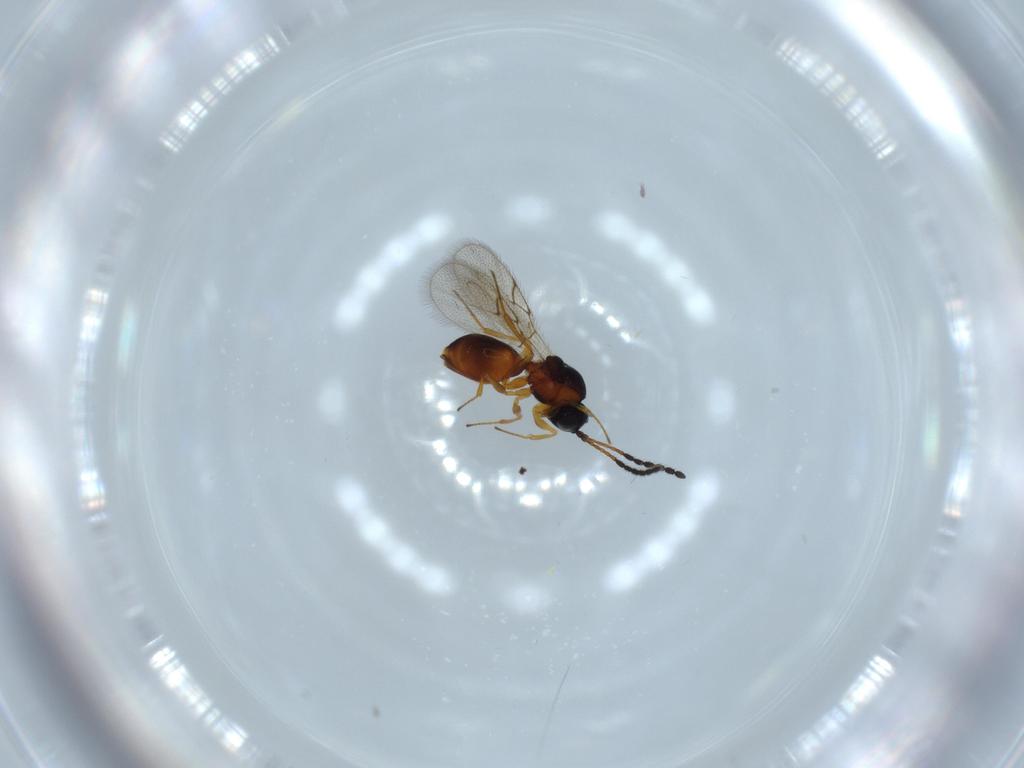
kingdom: Animalia
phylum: Arthropoda
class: Insecta
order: Hymenoptera
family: Figitidae
